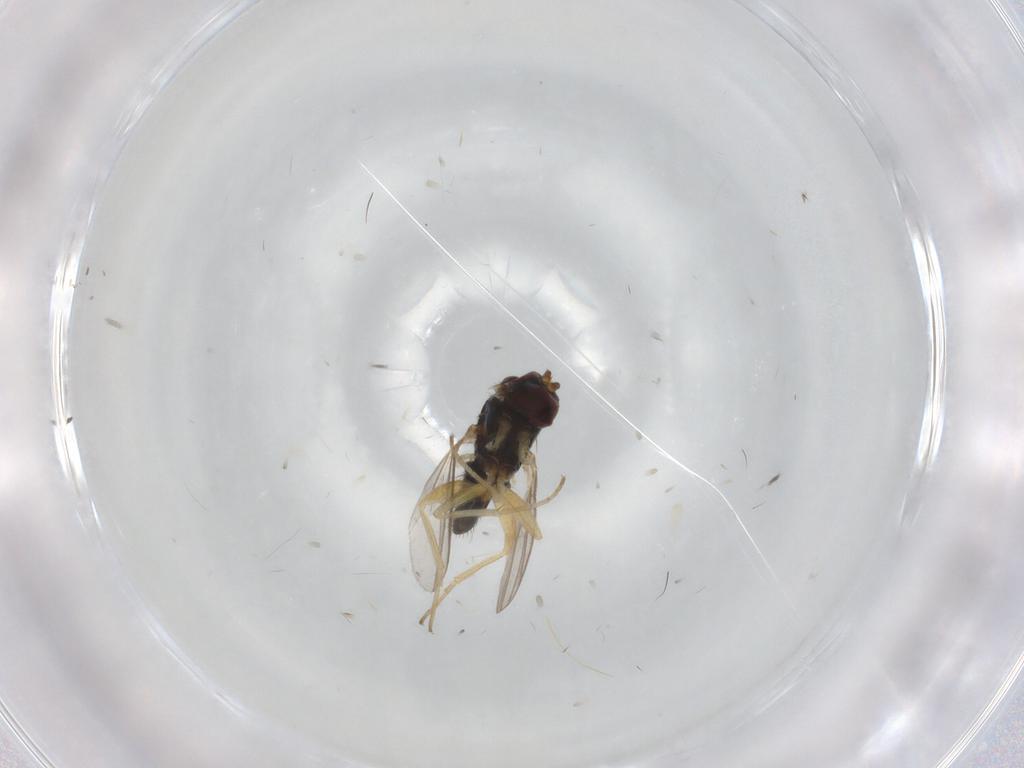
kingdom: Animalia
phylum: Arthropoda
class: Insecta
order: Diptera
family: Dolichopodidae
